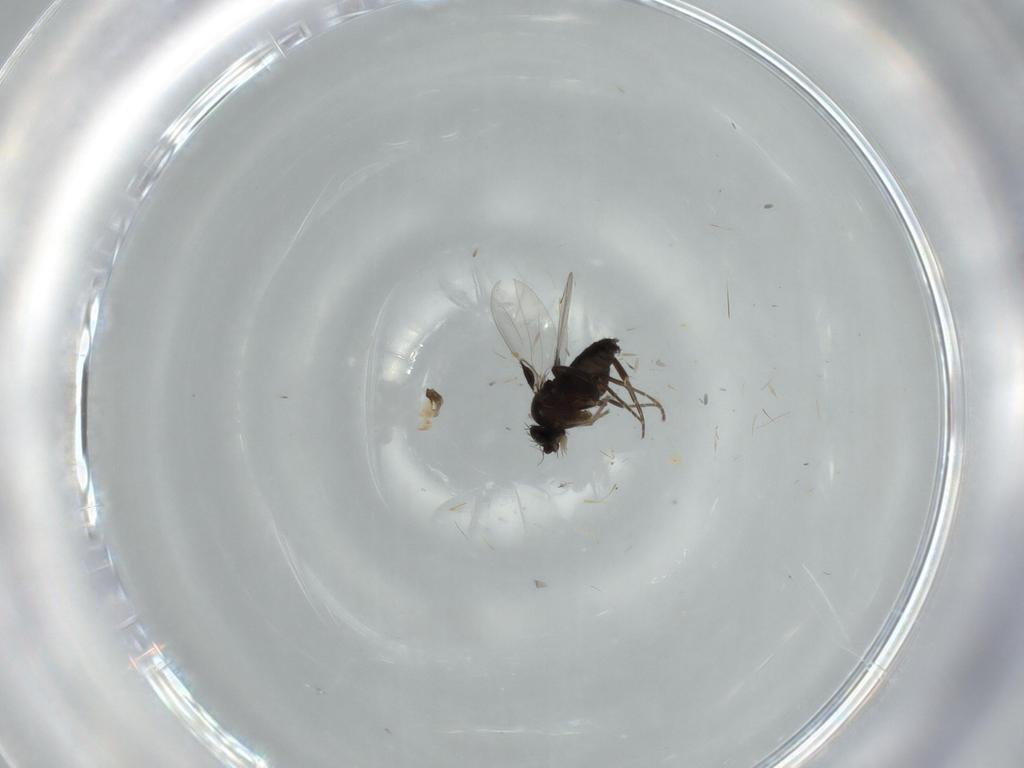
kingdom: Animalia
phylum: Arthropoda
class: Insecta
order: Diptera
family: Phoridae
